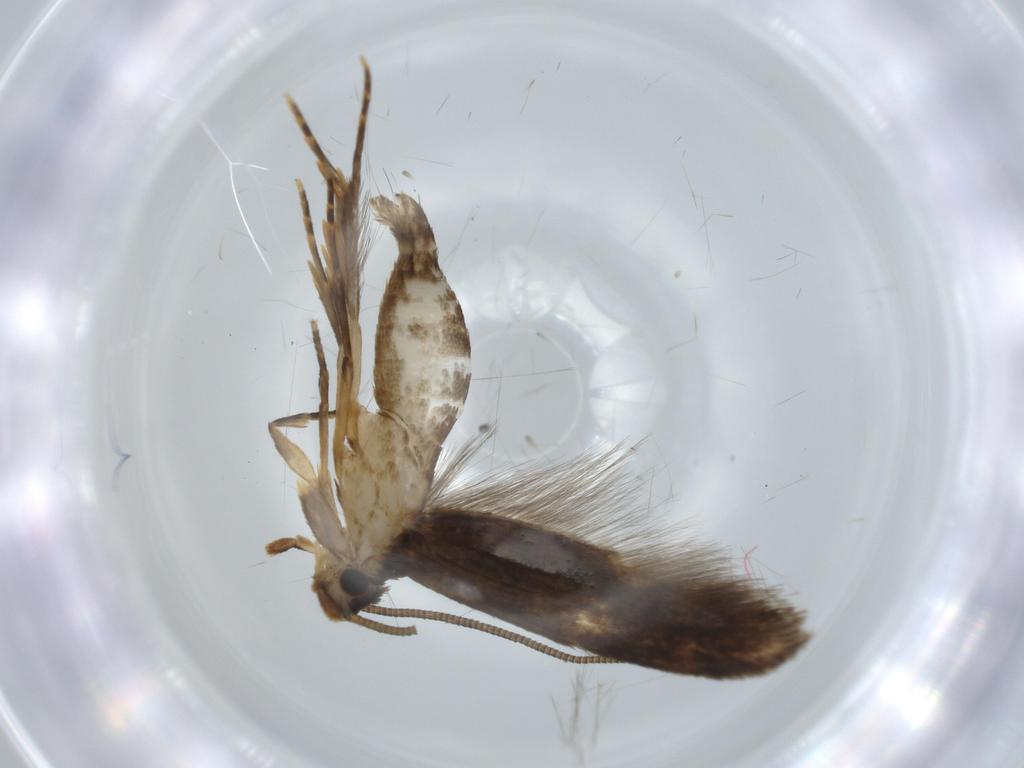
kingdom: Animalia
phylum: Arthropoda
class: Insecta
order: Lepidoptera
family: Tineidae
